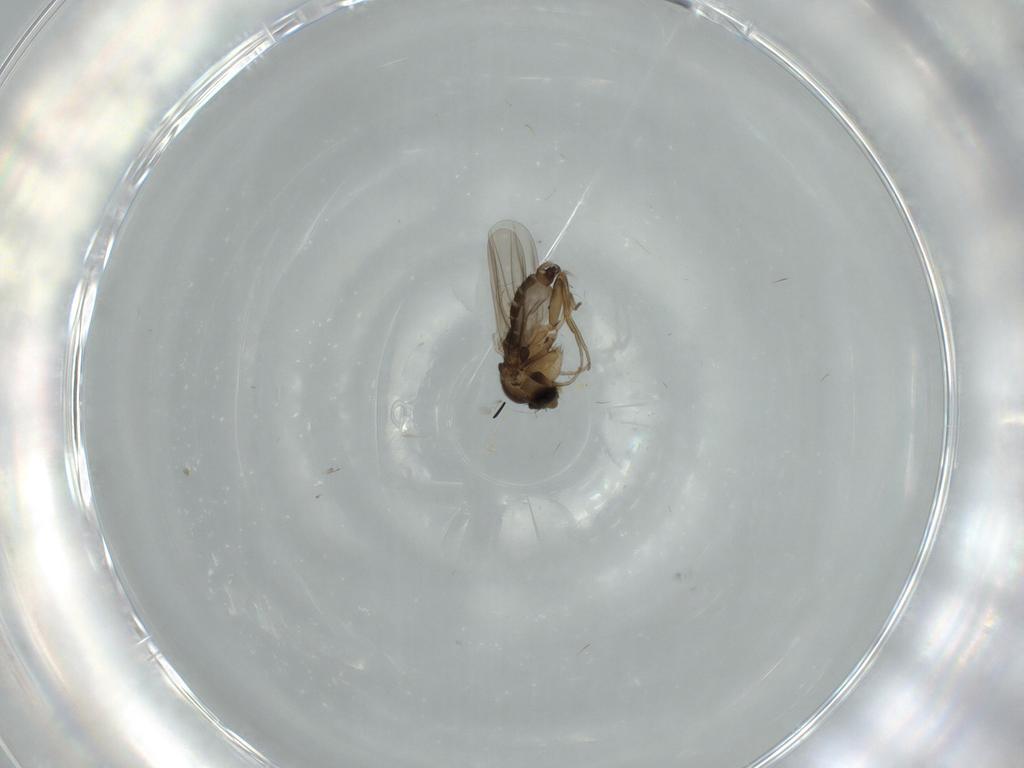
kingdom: Animalia
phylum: Arthropoda
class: Insecta
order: Diptera
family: Phoridae
